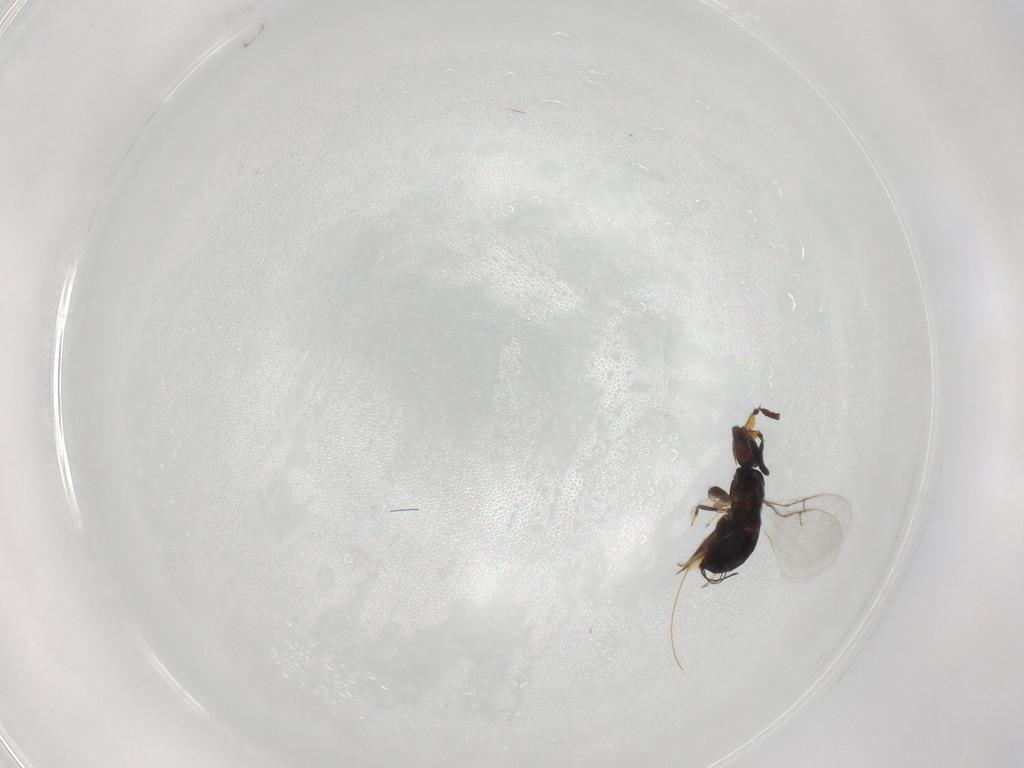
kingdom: Animalia
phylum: Arthropoda
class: Insecta
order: Hymenoptera
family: Agaonidae
